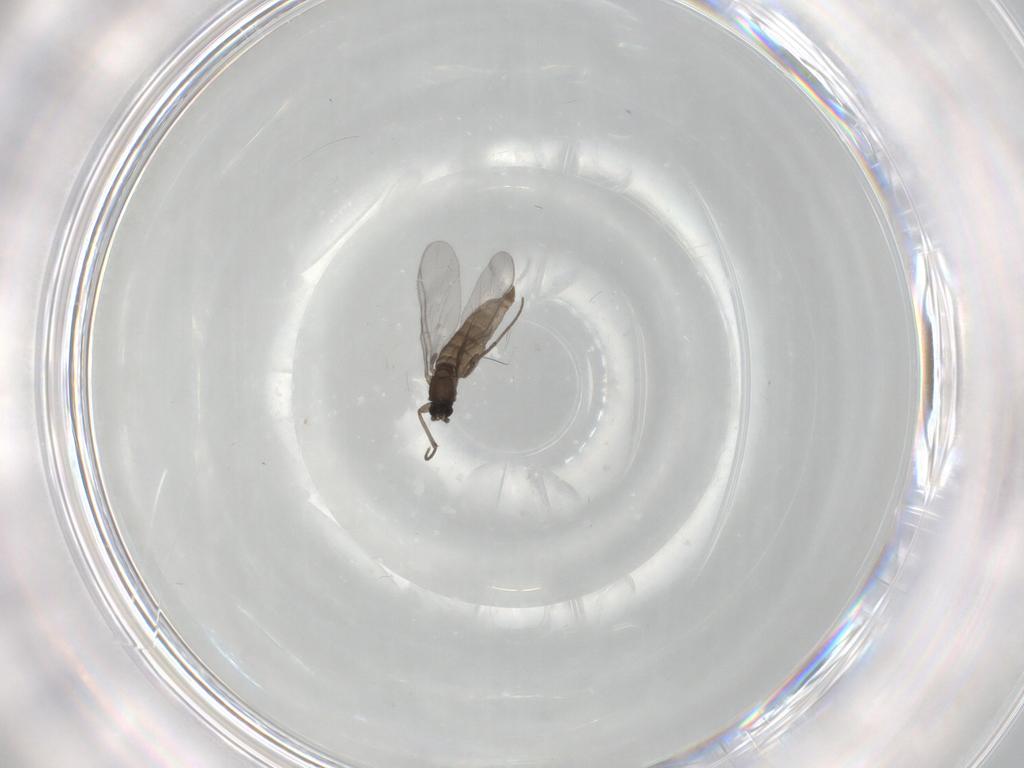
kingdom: Animalia
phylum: Arthropoda
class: Insecta
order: Diptera
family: Sciaridae
